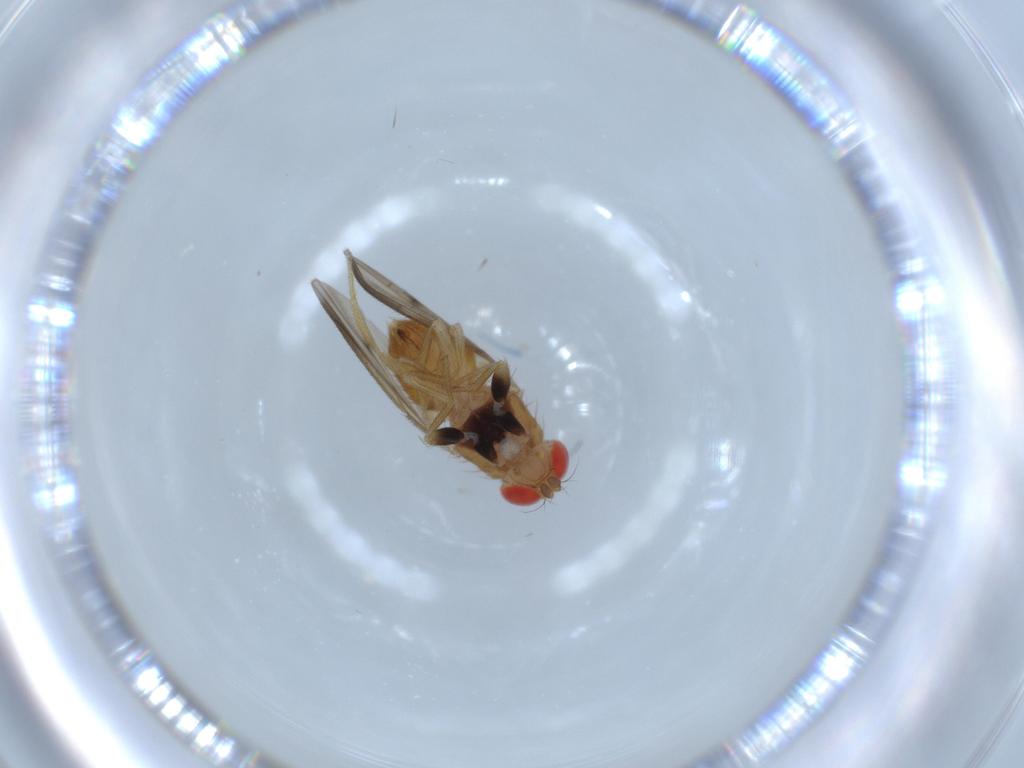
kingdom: Animalia
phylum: Arthropoda
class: Insecta
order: Diptera
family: Drosophilidae
